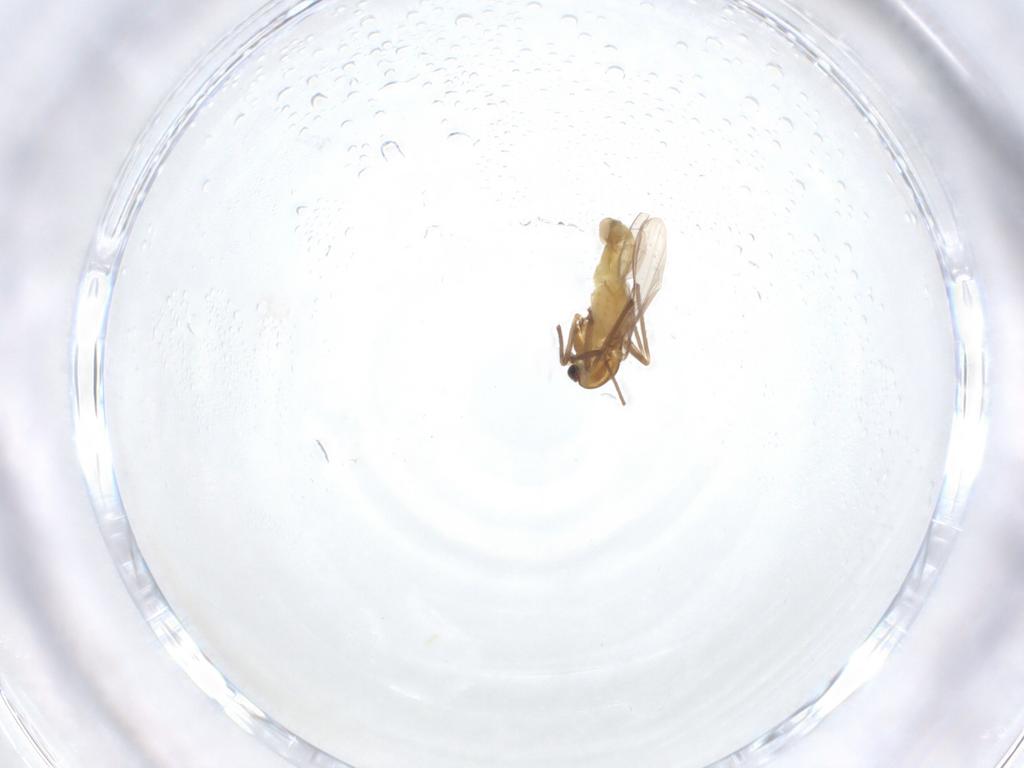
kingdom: Animalia
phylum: Arthropoda
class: Insecta
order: Diptera
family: Chironomidae
